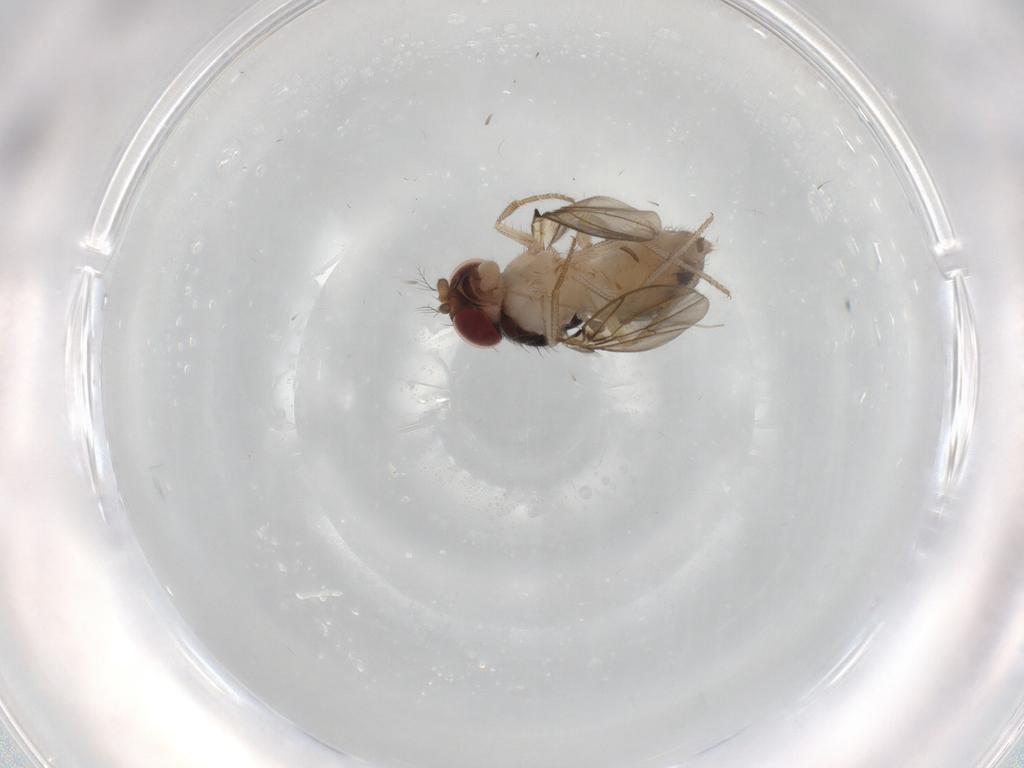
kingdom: Animalia
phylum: Arthropoda
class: Insecta
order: Diptera
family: Drosophilidae
